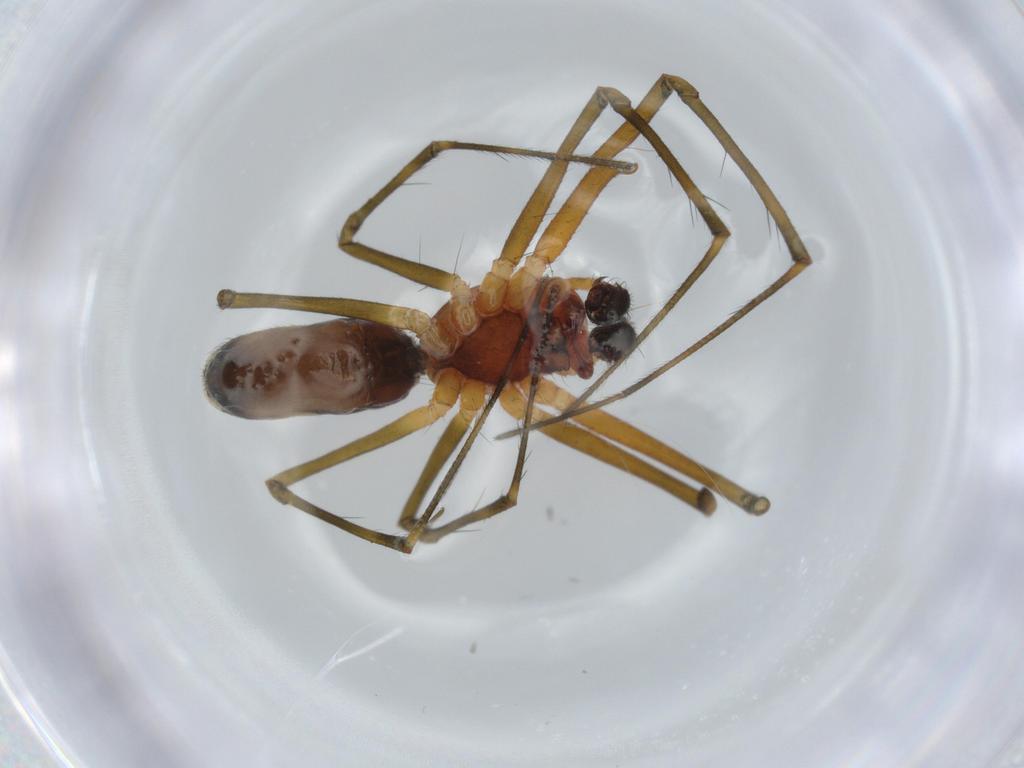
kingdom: Animalia
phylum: Arthropoda
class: Arachnida
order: Araneae
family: Linyphiidae
